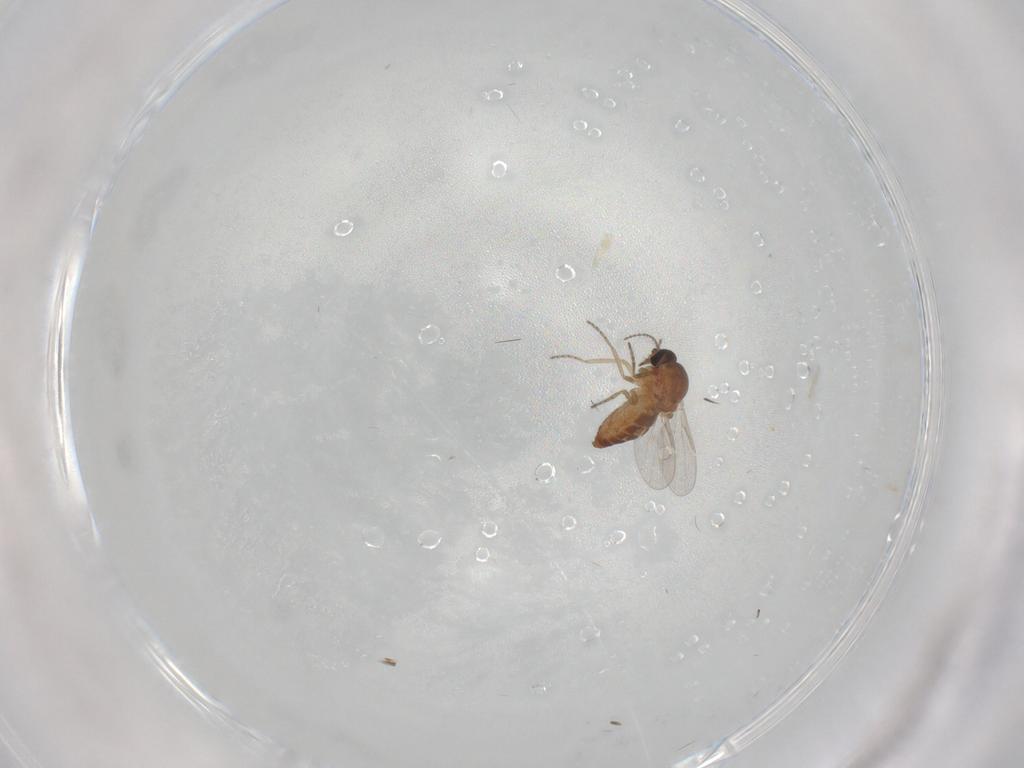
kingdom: Animalia
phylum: Arthropoda
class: Insecta
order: Diptera
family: Ceratopogonidae
